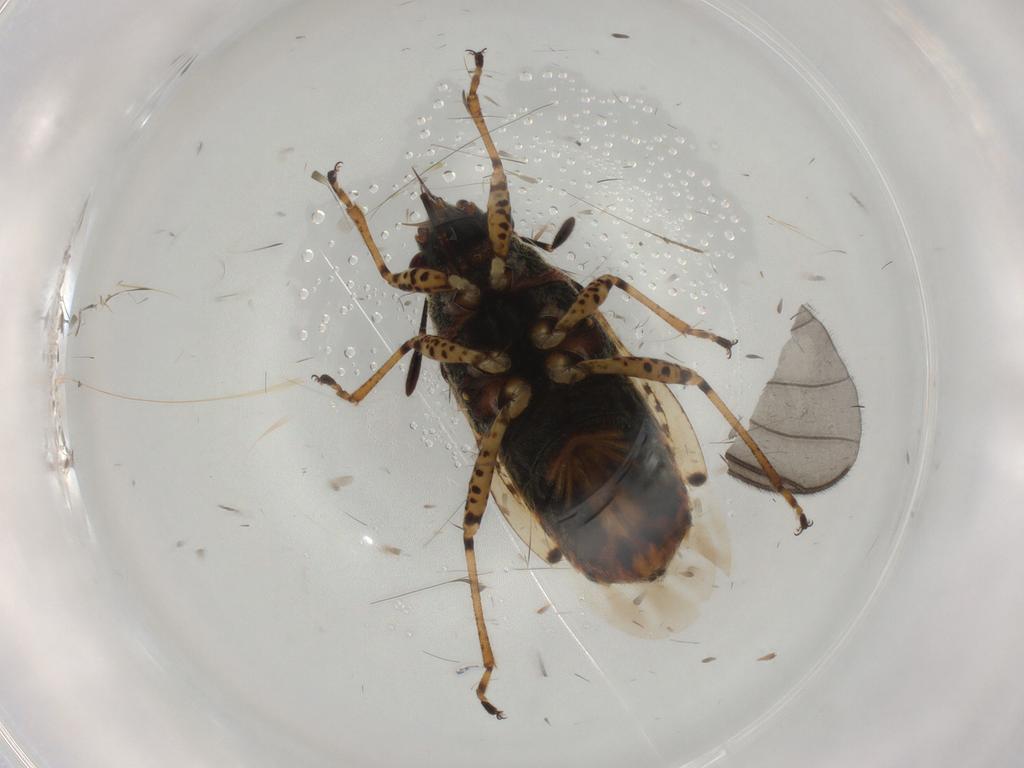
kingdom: Animalia
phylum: Arthropoda
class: Insecta
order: Hemiptera
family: Lygaeidae
